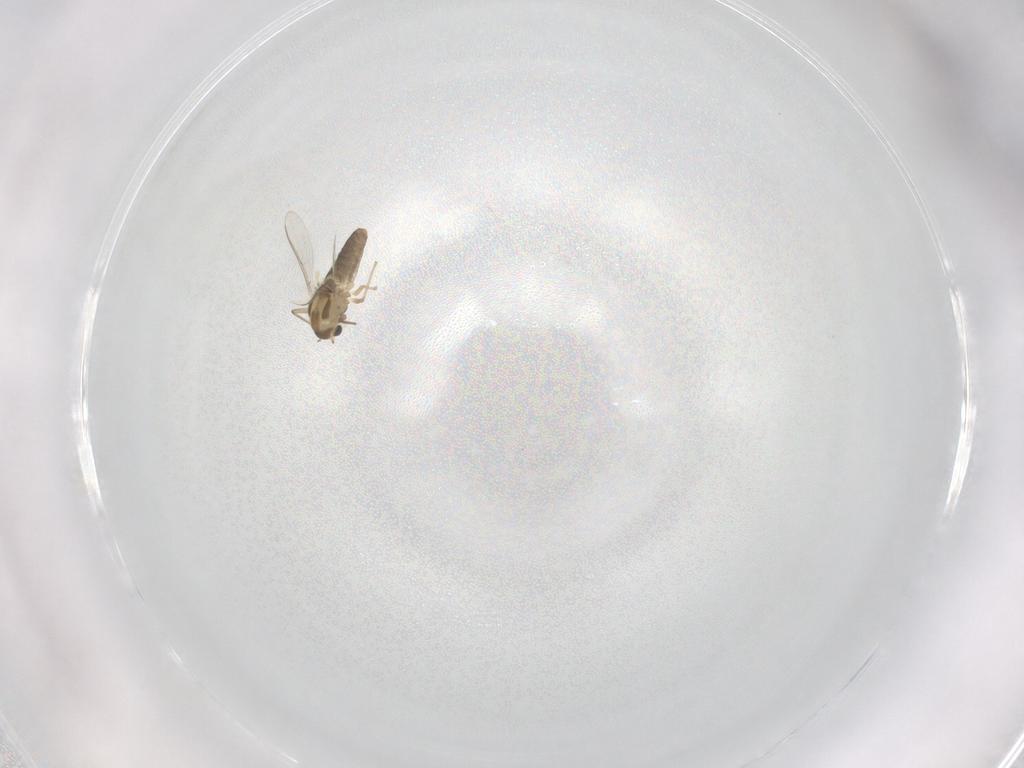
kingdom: Animalia
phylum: Arthropoda
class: Insecta
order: Diptera
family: Chironomidae
